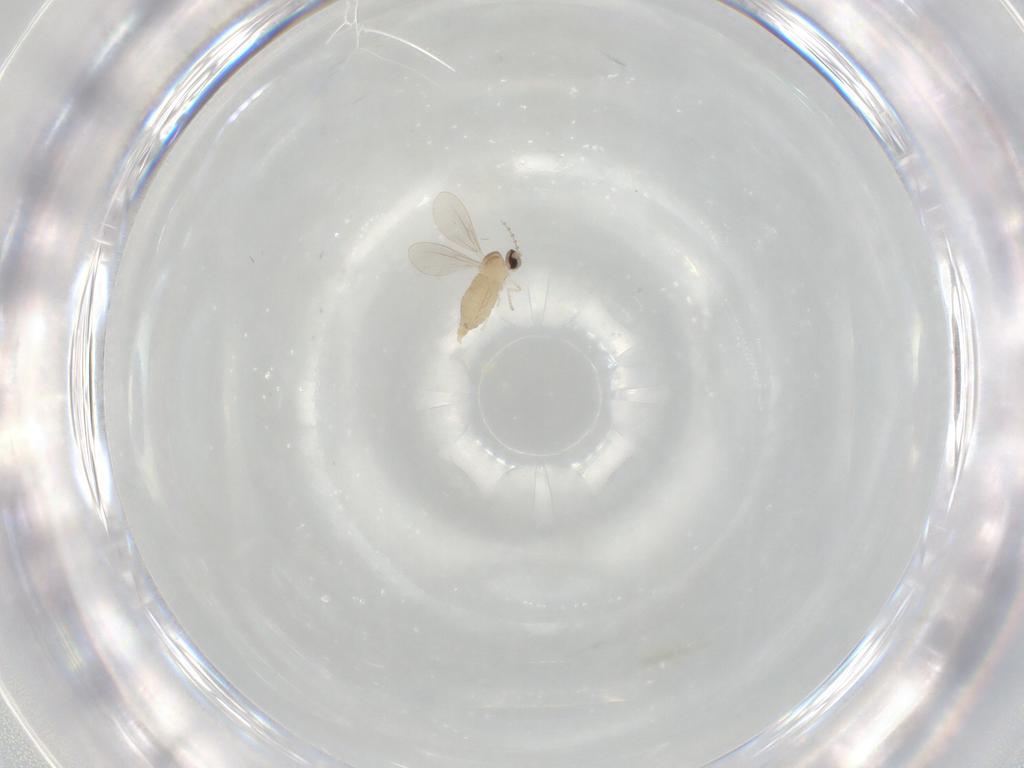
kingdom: Animalia
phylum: Arthropoda
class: Insecta
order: Diptera
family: Cecidomyiidae
